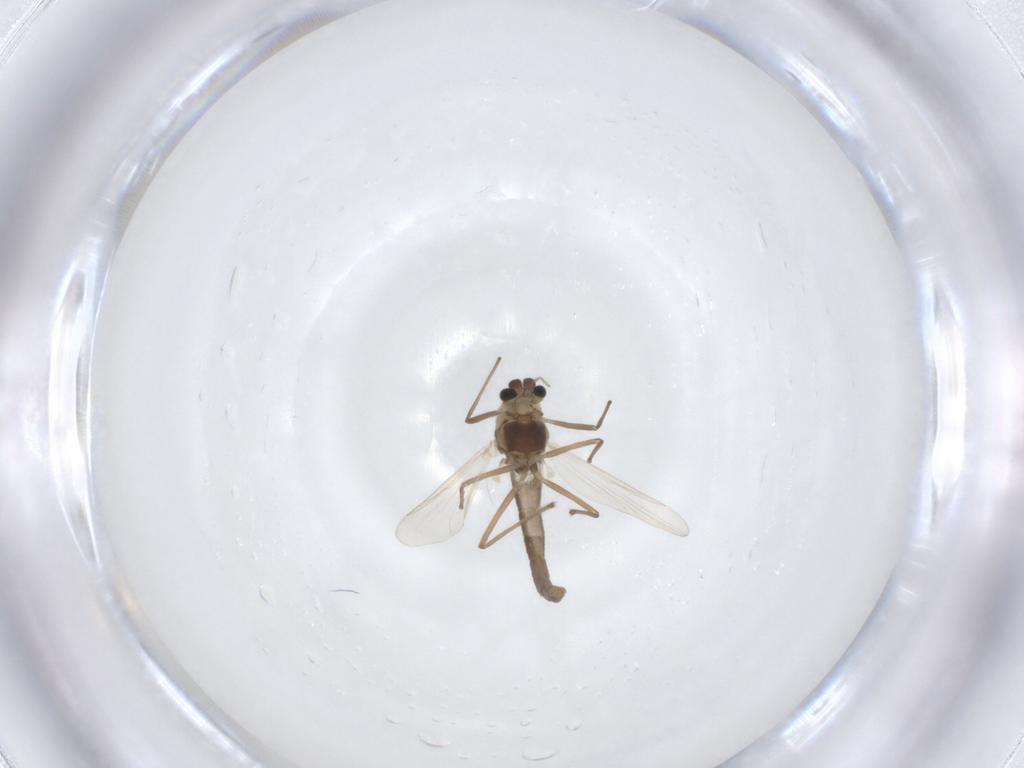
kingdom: Animalia
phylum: Arthropoda
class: Insecta
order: Diptera
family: Chironomidae
